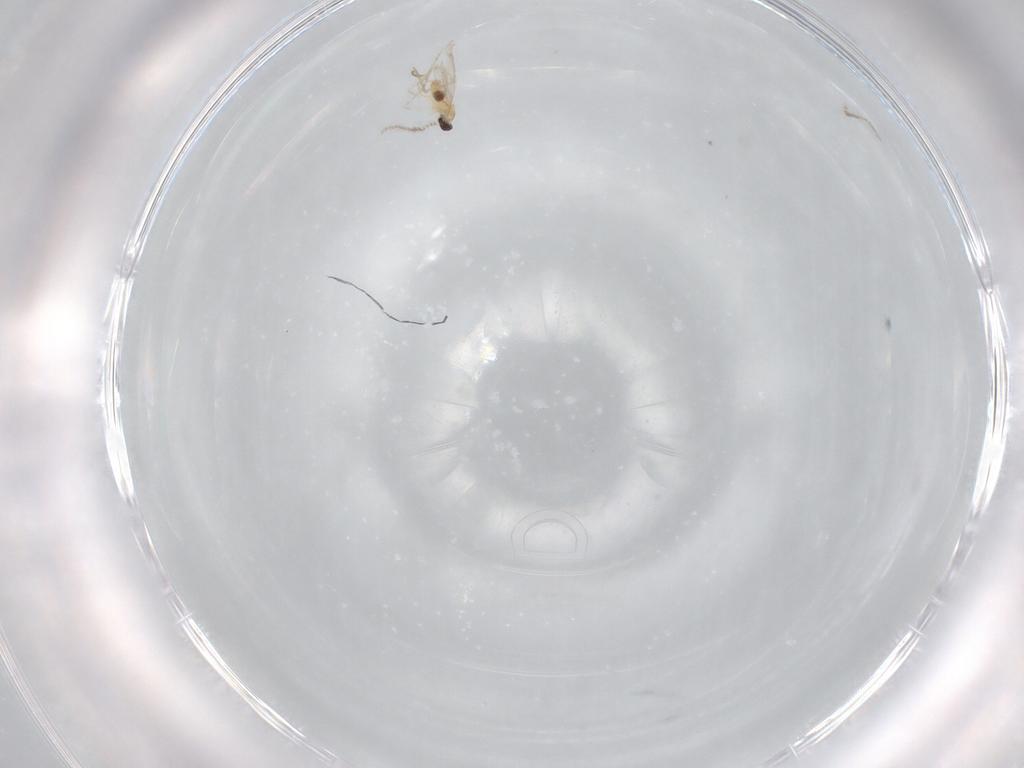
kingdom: Animalia
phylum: Arthropoda
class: Insecta
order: Diptera
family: Cecidomyiidae
